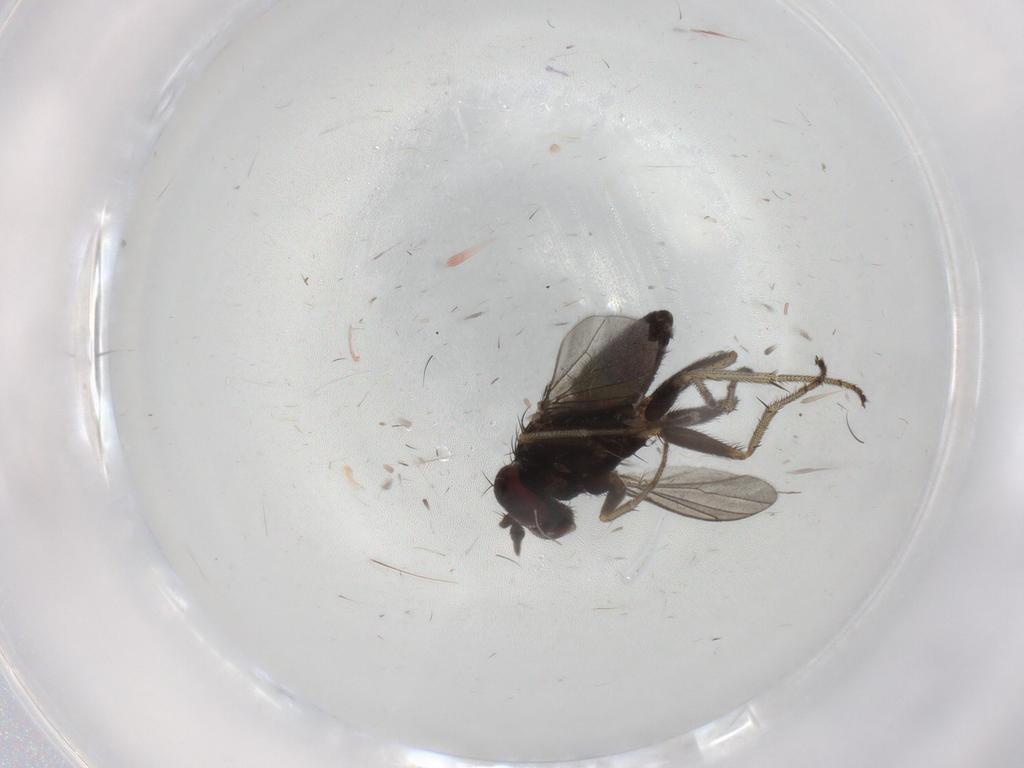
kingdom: Animalia
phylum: Arthropoda
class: Insecta
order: Diptera
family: Dolichopodidae
